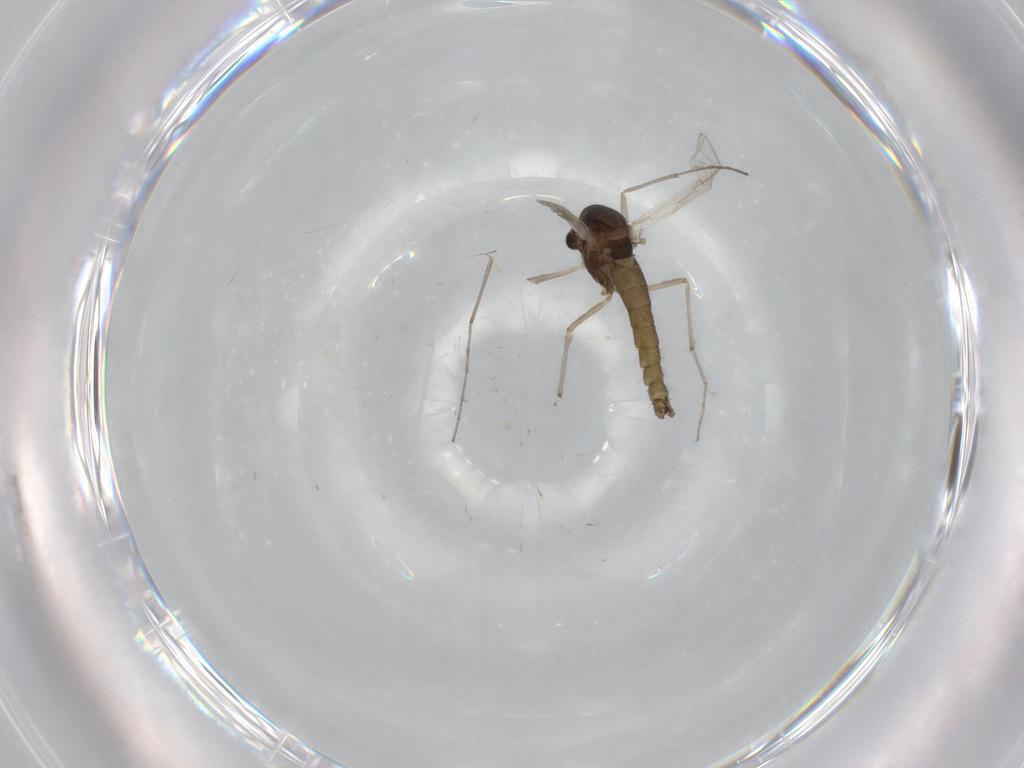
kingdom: Animalia
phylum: Arthropoda
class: Insecta
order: Diptera
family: Chironomidae
